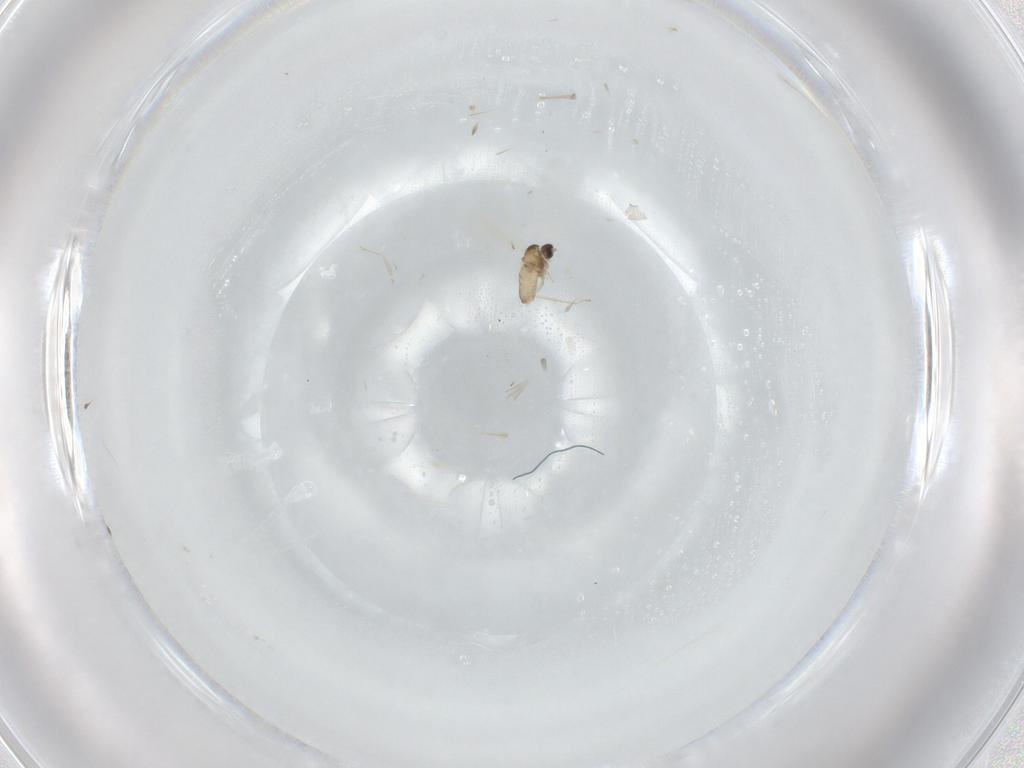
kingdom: Animalia
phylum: Arthropoda
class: Insecta
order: Diptera
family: Cecidomyiidae
